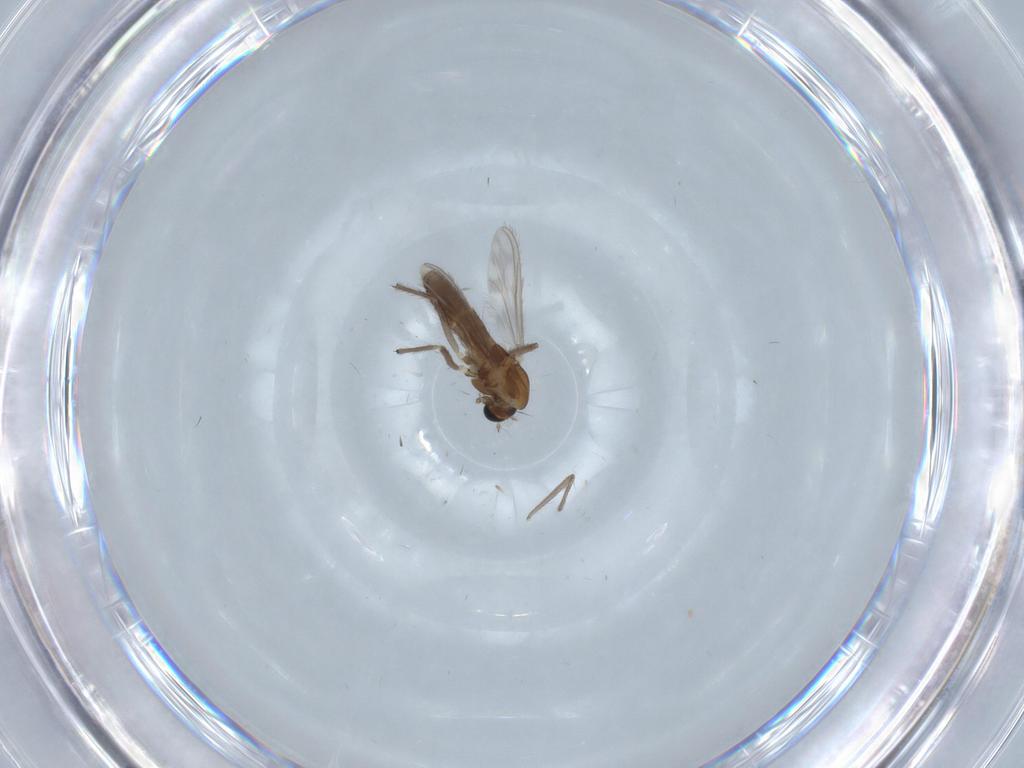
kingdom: Animalia
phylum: Arthropoda
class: Insecta
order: Diptera
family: Chironomidae
